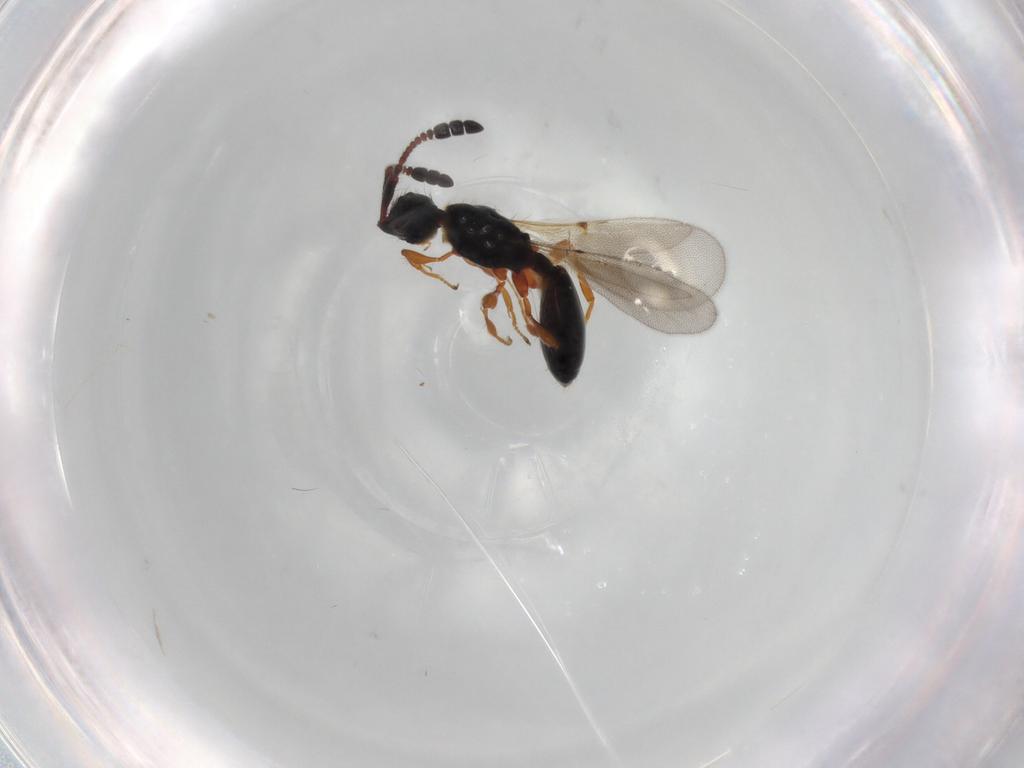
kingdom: Animalia
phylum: Arthropoda
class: Insecta
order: Hymenoptera
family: Diapriidae
